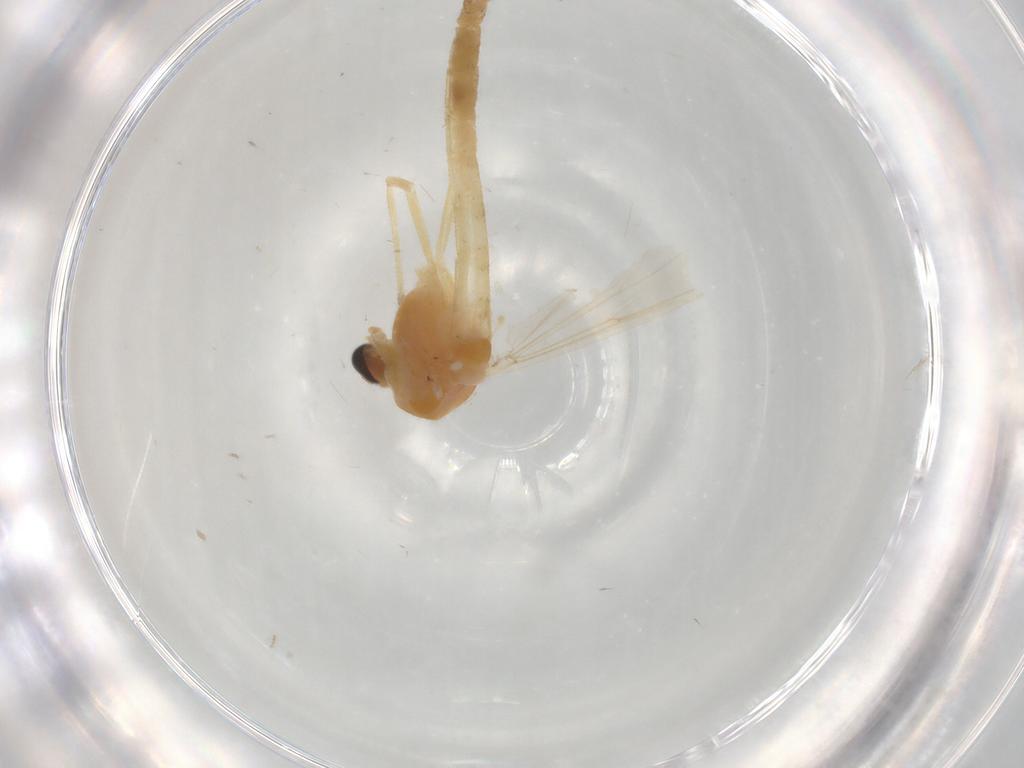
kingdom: Animalia
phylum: Arthropoda
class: Insecta
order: Diptera
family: Chironomidae
